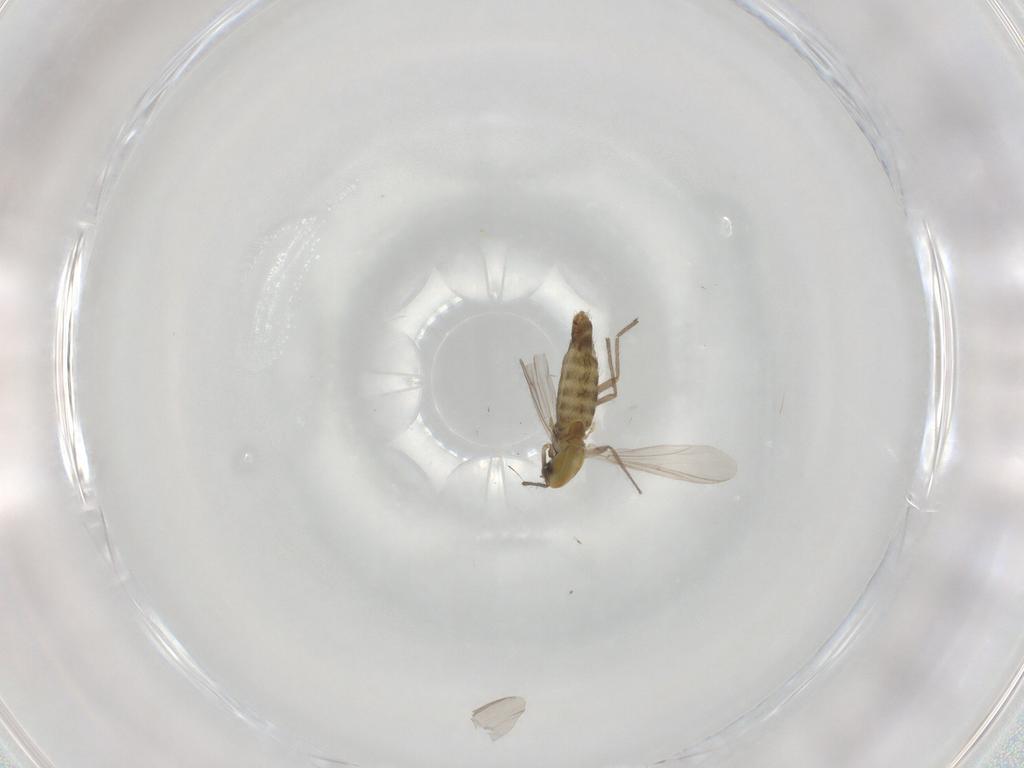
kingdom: Animalia
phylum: Arthropoda
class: Insecta
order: Diptera
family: Chironomidae
